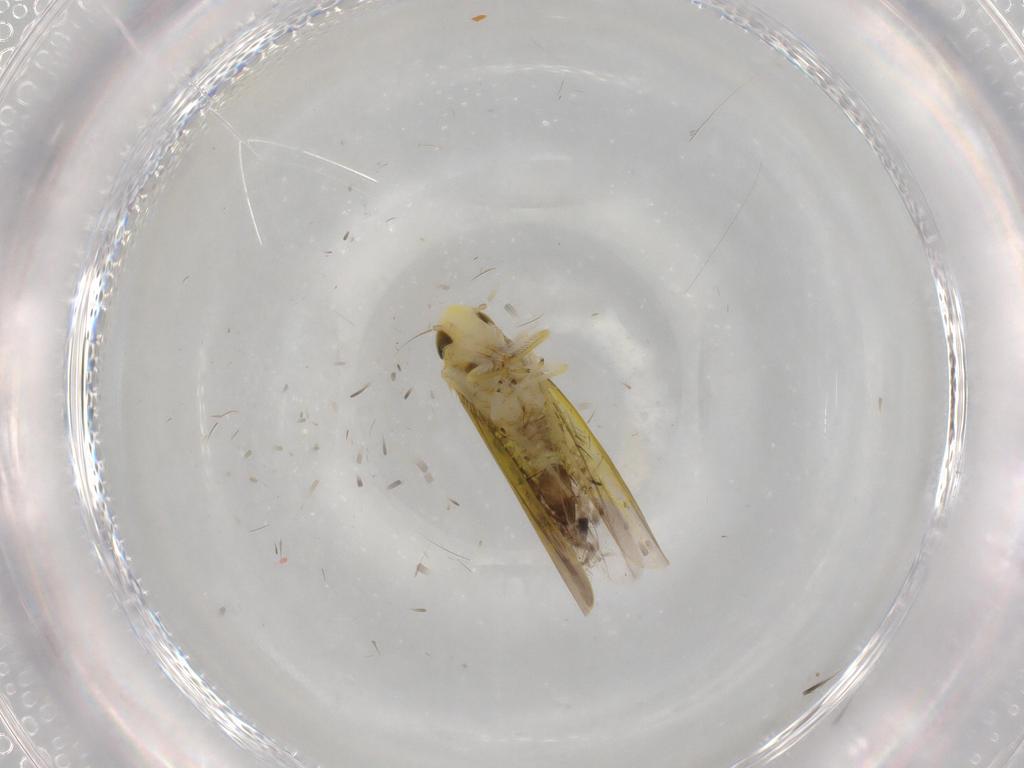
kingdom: Animalia
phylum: Arthropoda
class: Insecta
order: Hemiptera
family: Cicadellidae
